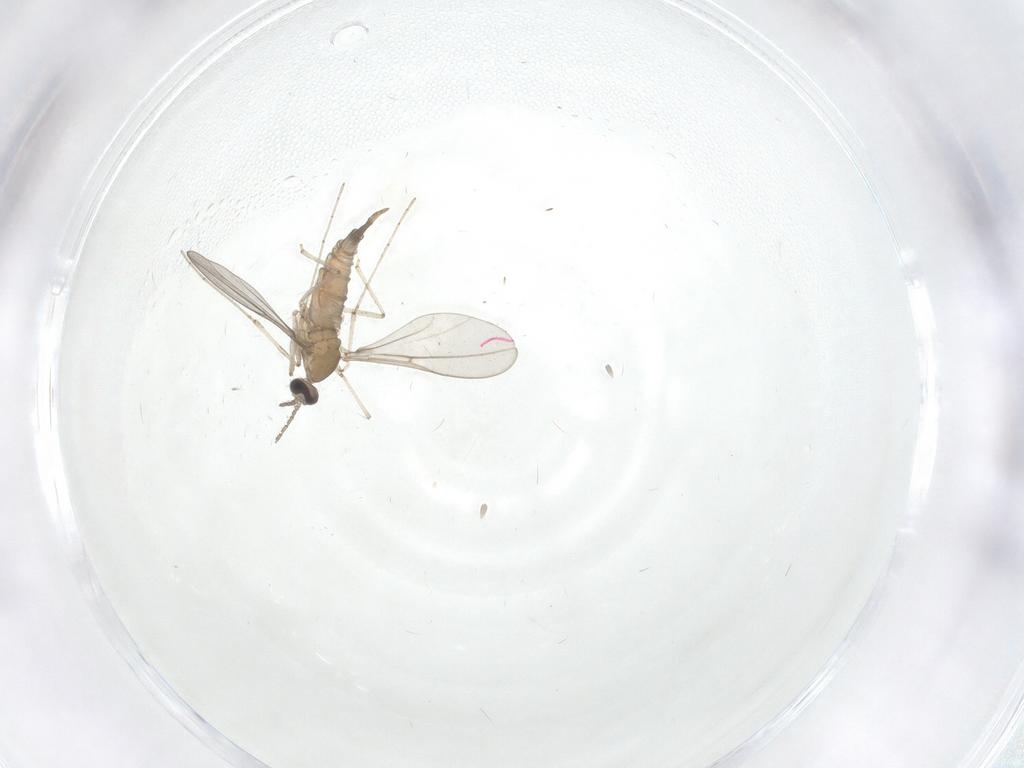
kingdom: Animalia
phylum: Arthropoda
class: Insecta
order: Diptera
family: Cecidomyiidae
